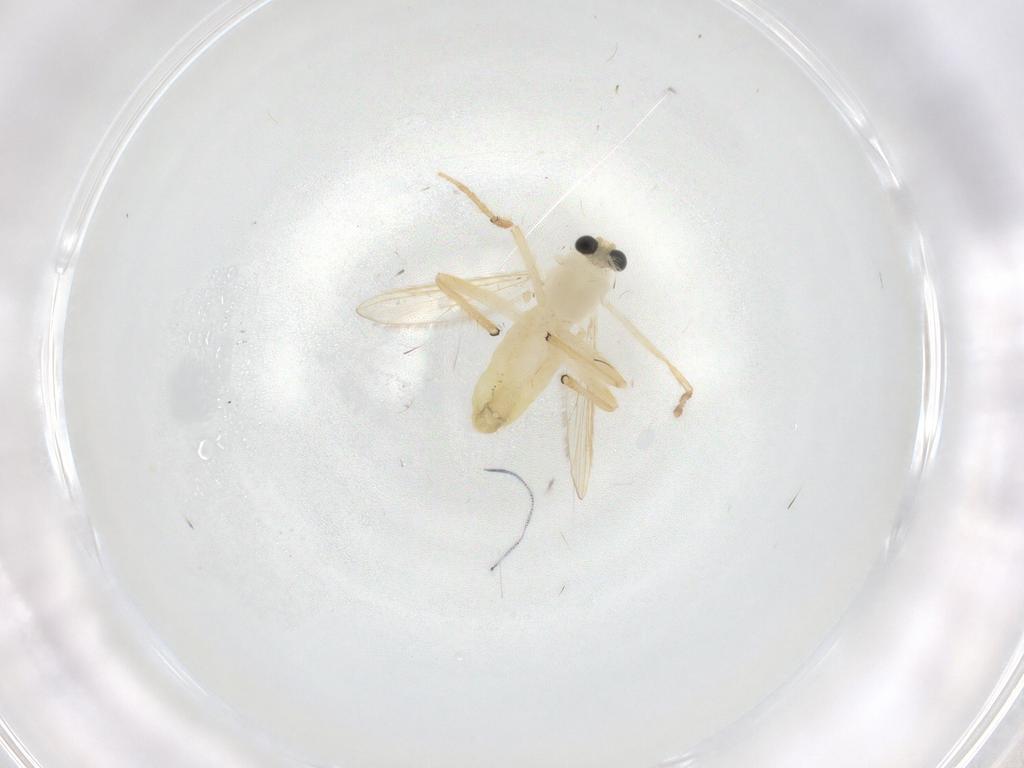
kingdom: Animalia
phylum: Arthropoda
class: Insecta
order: Diptera
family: Chironomidae
